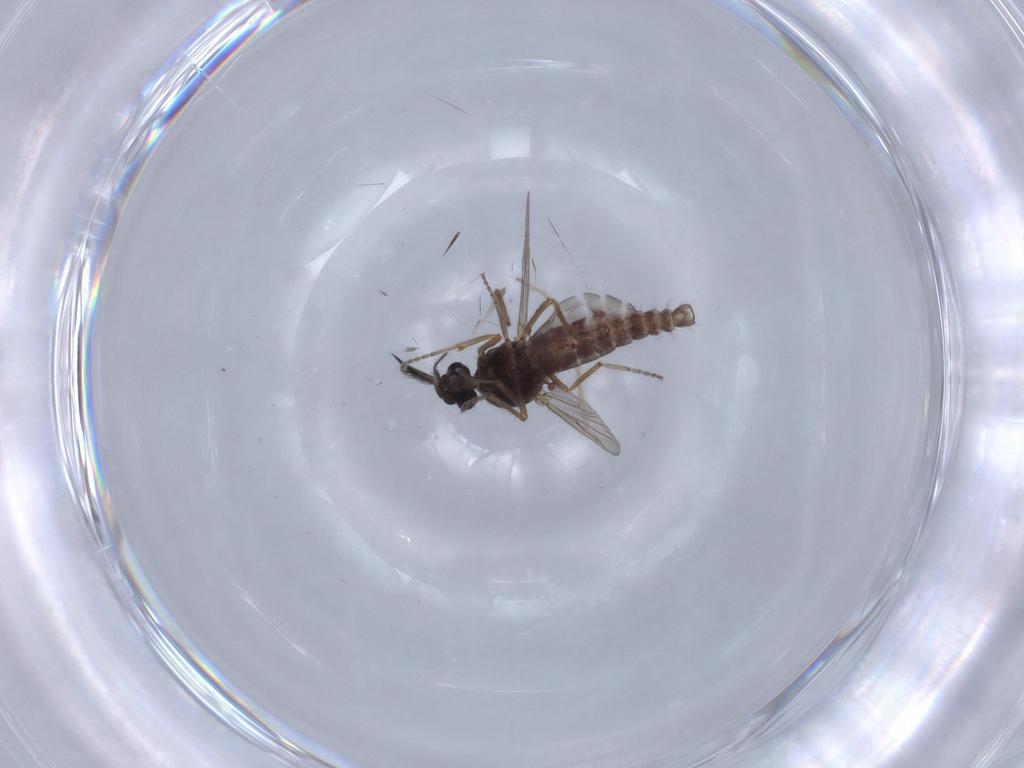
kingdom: Animalia
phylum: Arthropoda
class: Insecta
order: Diptera
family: Ceratopogonidae
